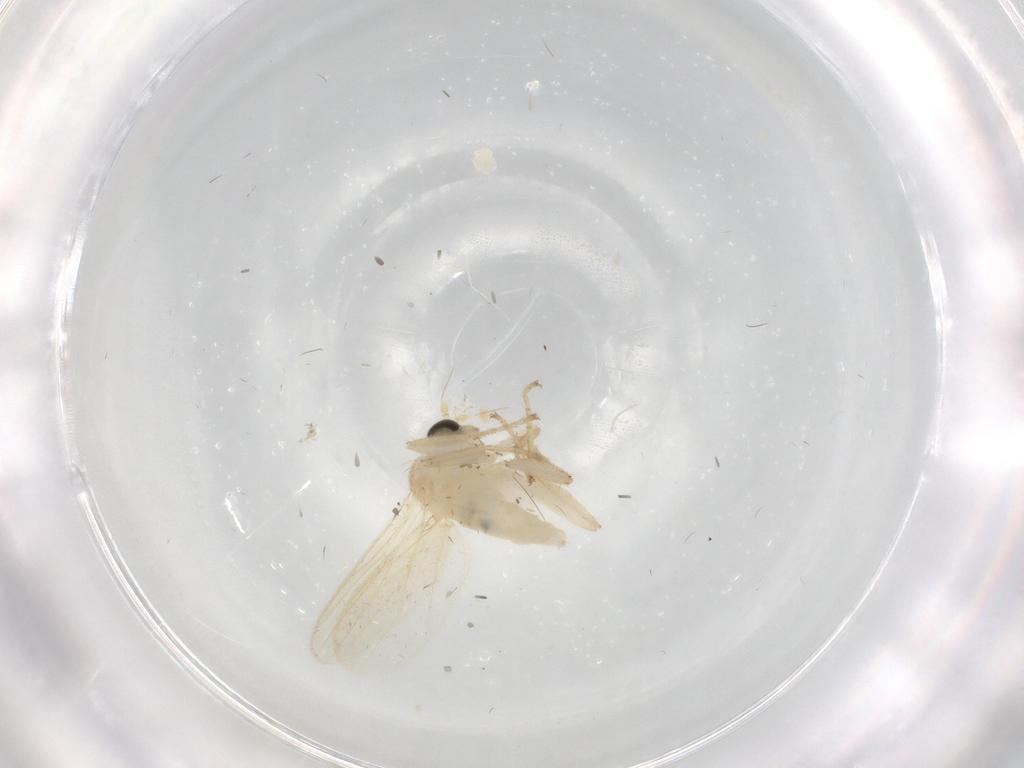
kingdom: Animalia
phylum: Arthropoda
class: Insecta
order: Diptera
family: Hybotidae
